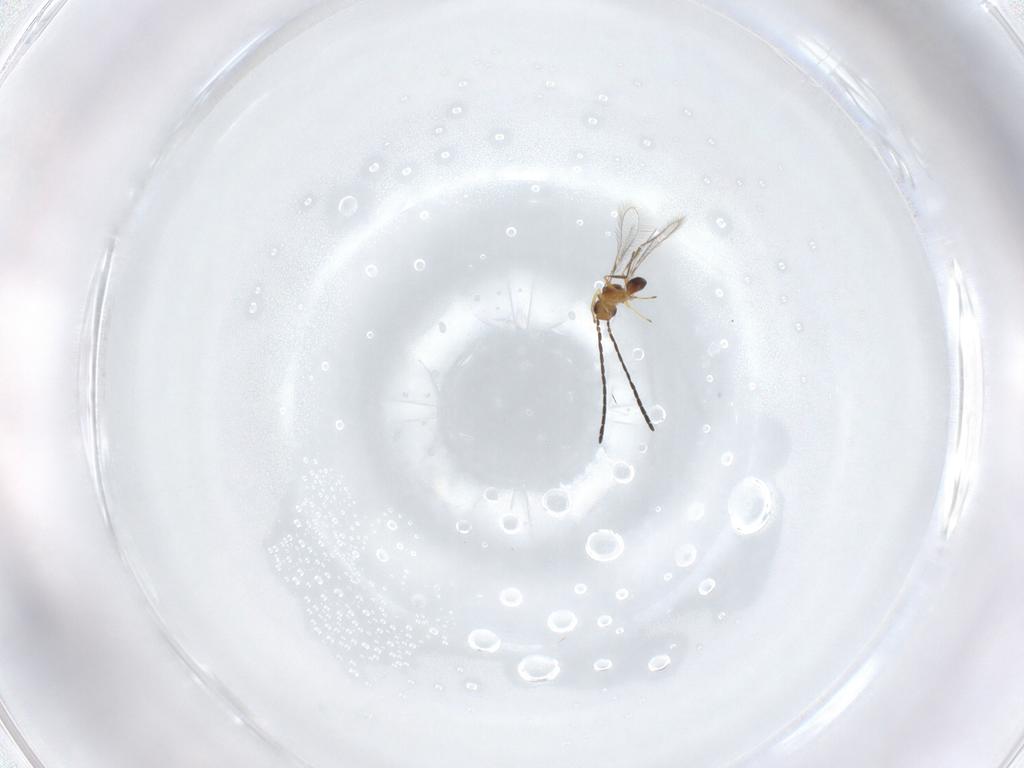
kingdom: Animalia
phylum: Arthropoda
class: Insecta
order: Hymenoptera
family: Mymaridae
